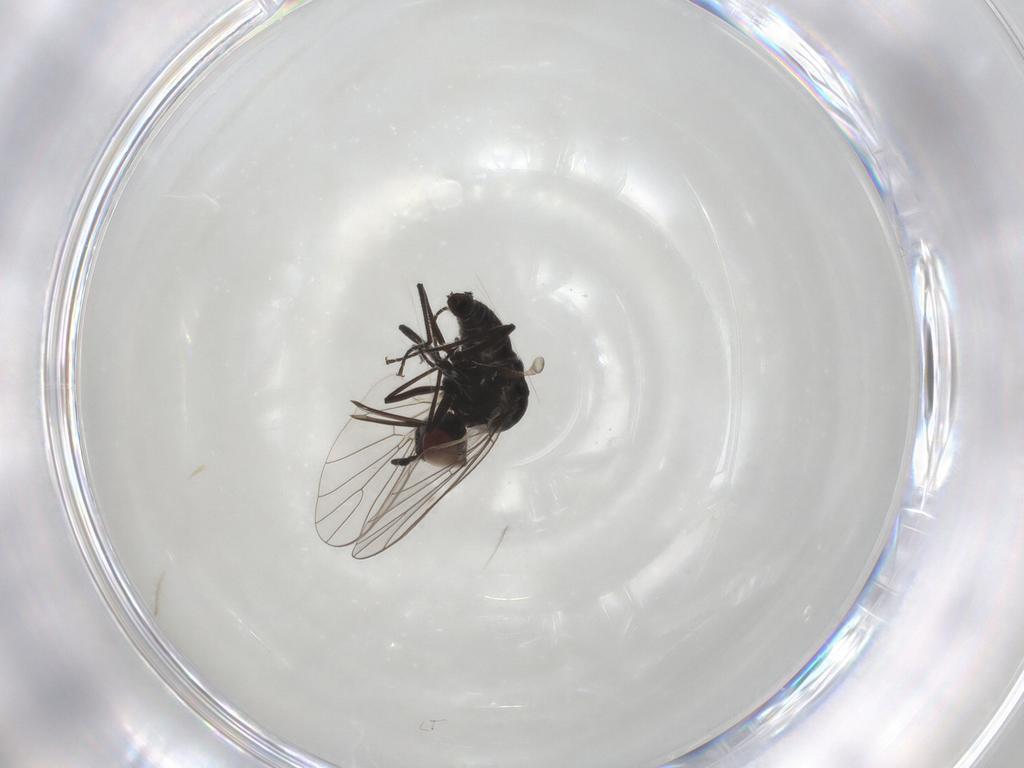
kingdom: Animalia
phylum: Arthropoda
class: Insecta
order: Diptera
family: Bombyliidae
